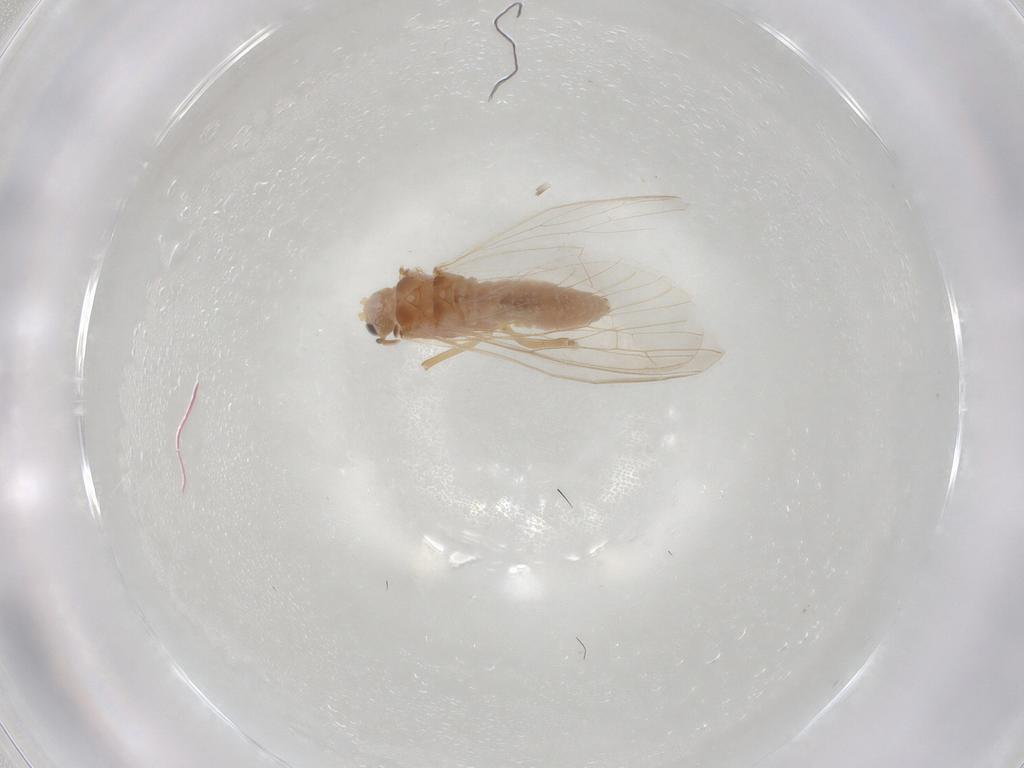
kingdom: Animalia
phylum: Arthropoda
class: Insecta
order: Neuroptera
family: Coniopterygidae
